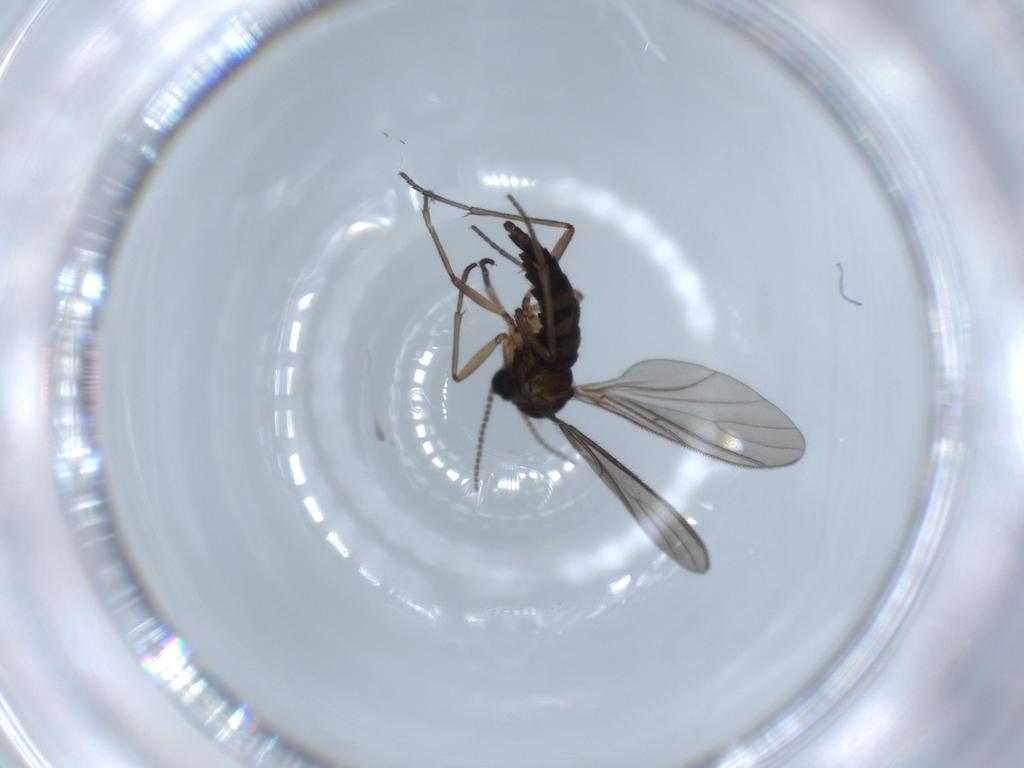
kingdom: Animalia
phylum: Arthropoda
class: Insecta
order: Diptera
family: Sciaridae
